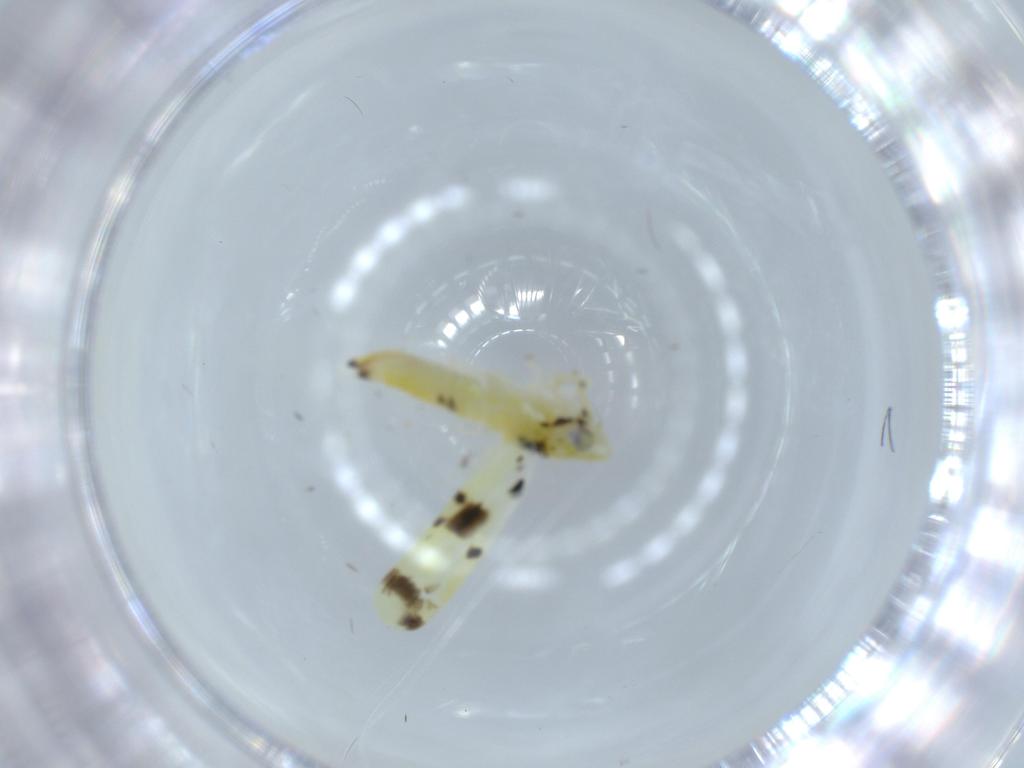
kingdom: Animalia
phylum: Arthropoda
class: Insecta
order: Hemiptera
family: Cicadellidae
